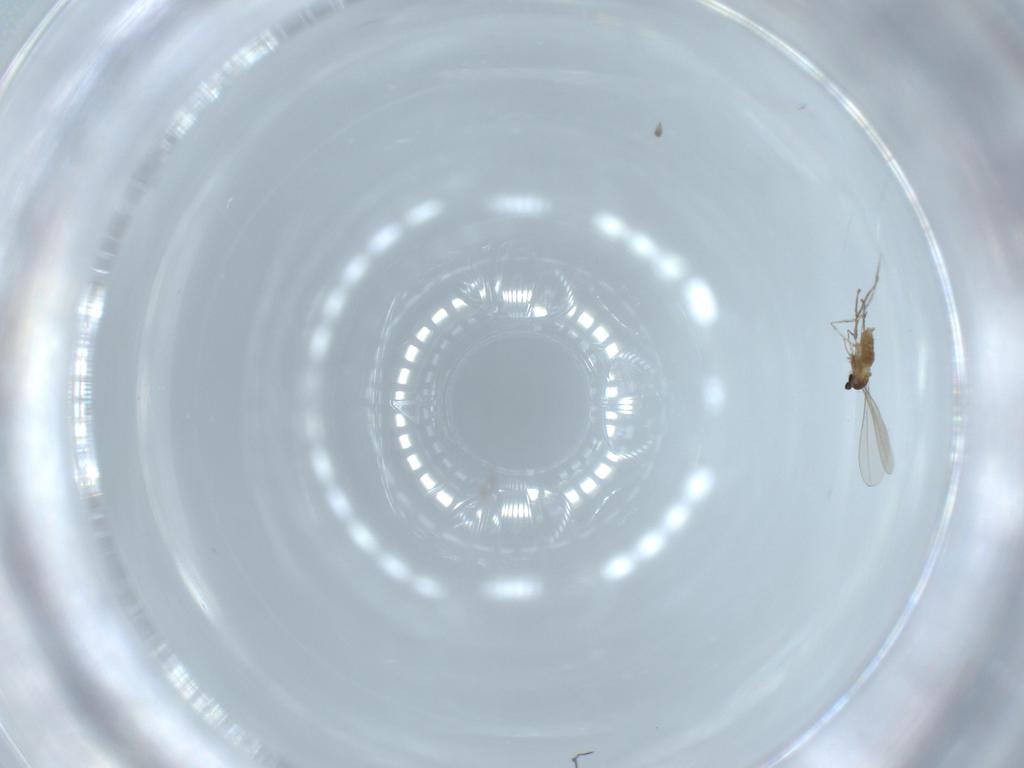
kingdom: Animalia
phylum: Arthropoda
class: Insecta
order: Diptera
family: Cecidomyiidae
